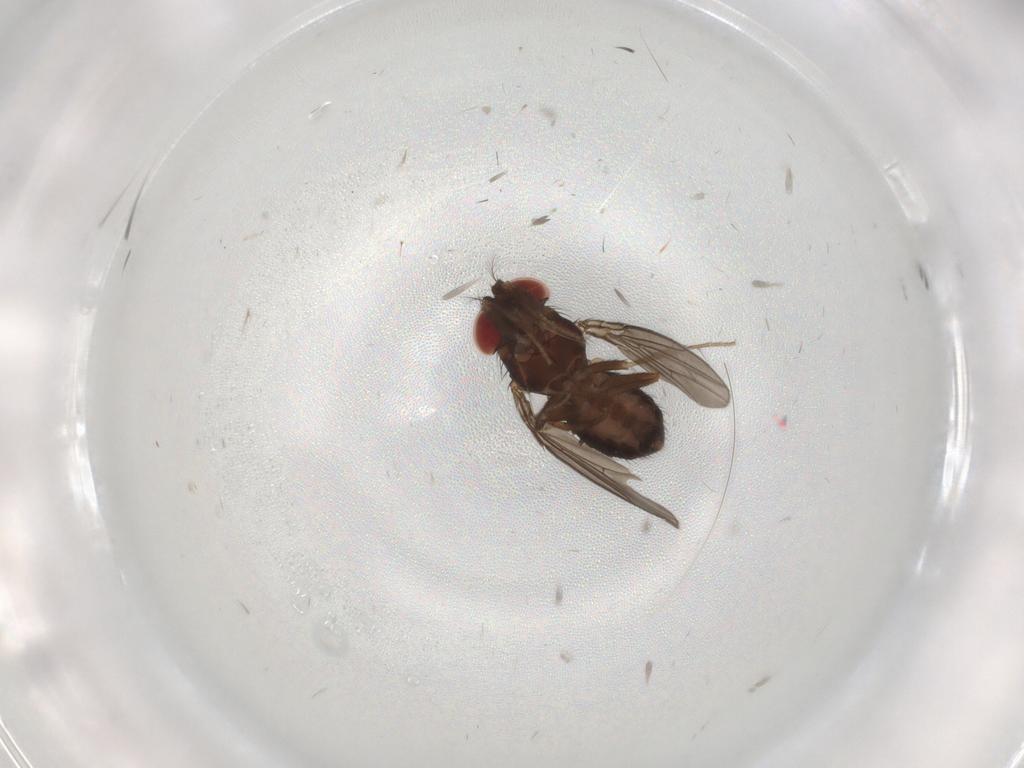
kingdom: Animalia
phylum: Arthropoda
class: Insecta
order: Diptera
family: Drosophilidae
